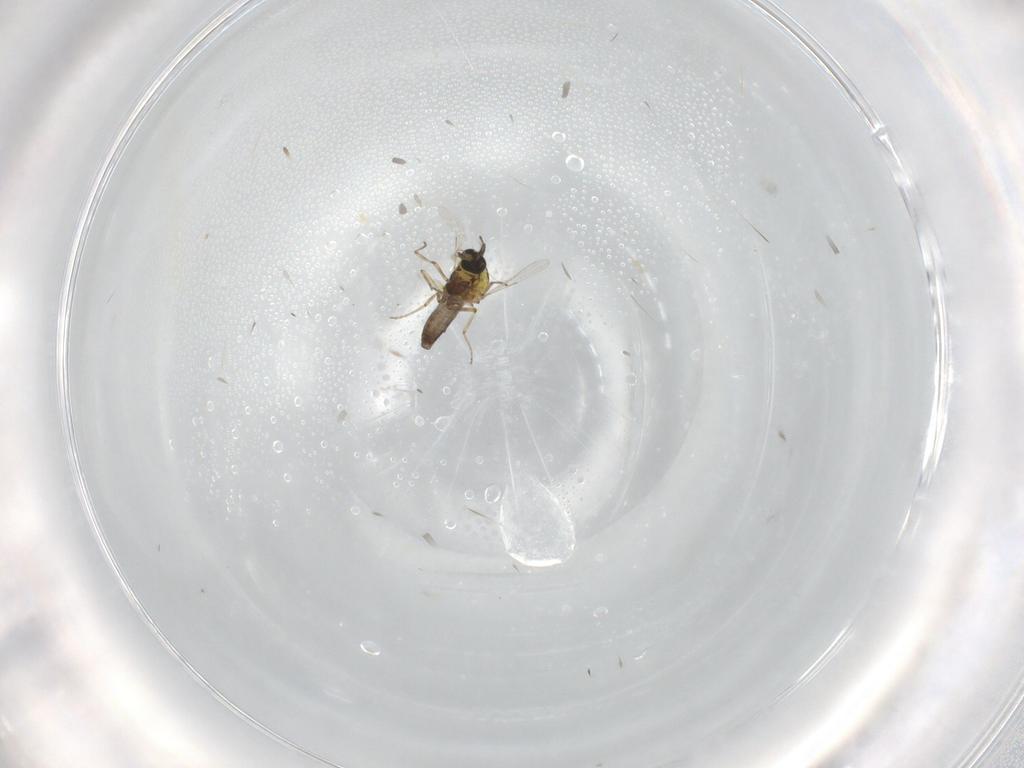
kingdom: Animalia
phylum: Arthropoda
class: Insecta
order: Diptera
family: Ceratopogonidae
